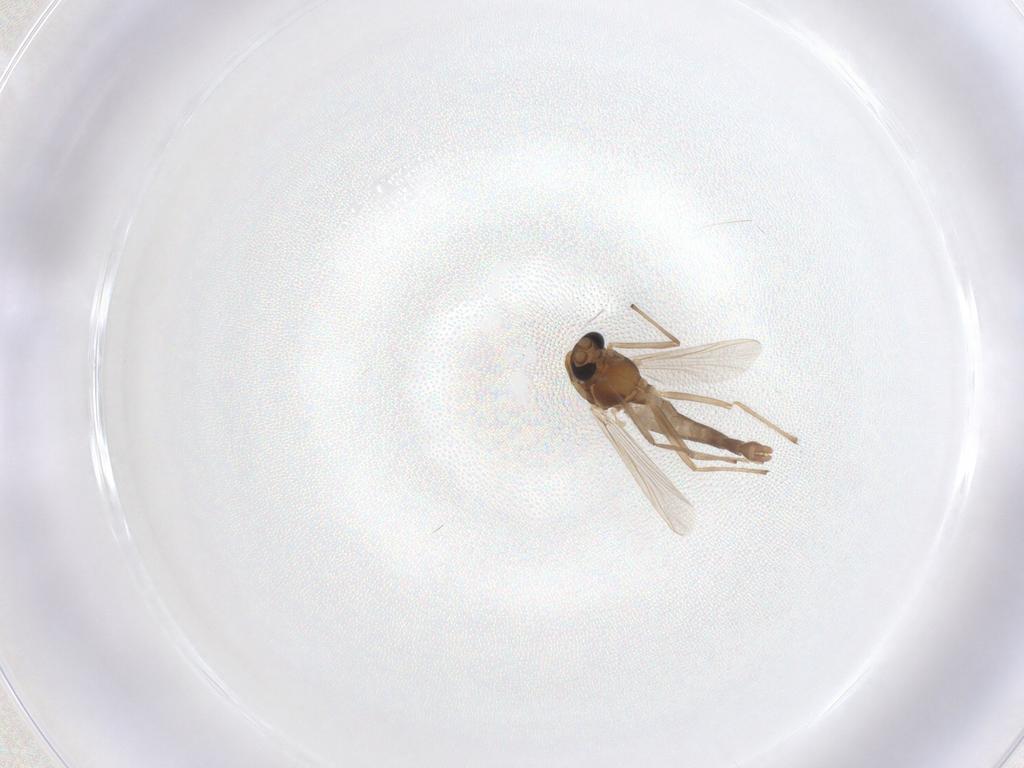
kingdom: Animalia
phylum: Arthropoda
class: Insecta
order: Diptera
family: Chironomidae
